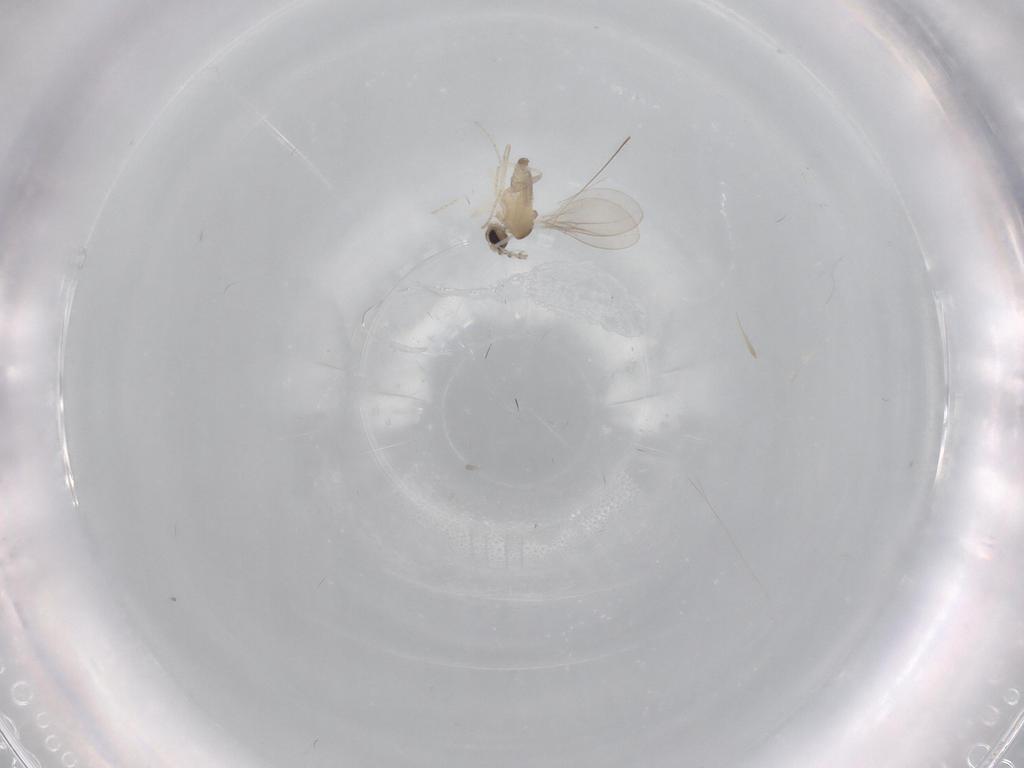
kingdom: Animalia
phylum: Arthropoda
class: Insecta
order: Diptera
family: Cecidomyiidae
